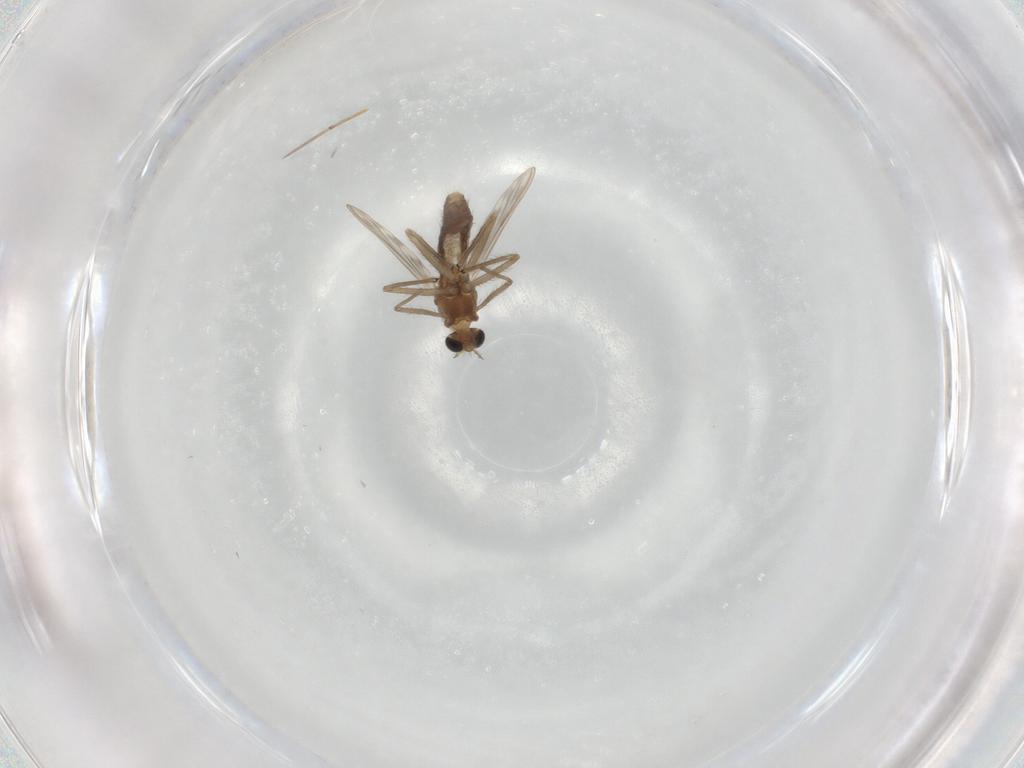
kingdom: Animalia
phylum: Arthropoda
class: Insecta
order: Diptera
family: Chironomidae
